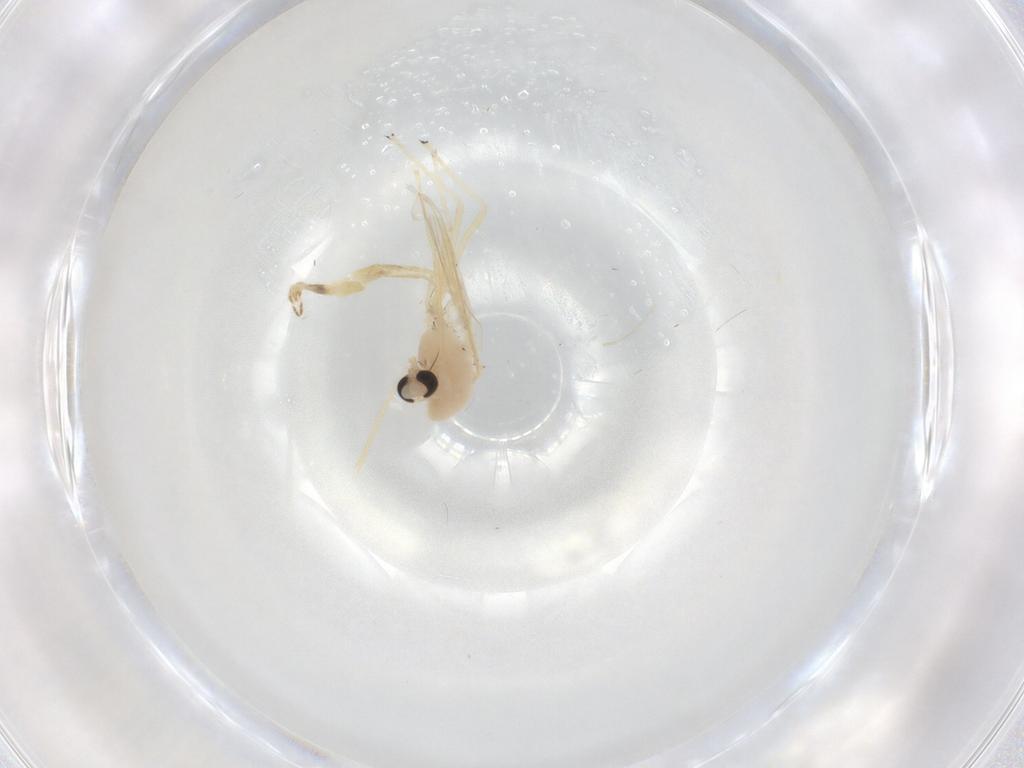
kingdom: Animalia
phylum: Arthropoda
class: Insecta
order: Diptera
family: Chironomidae
